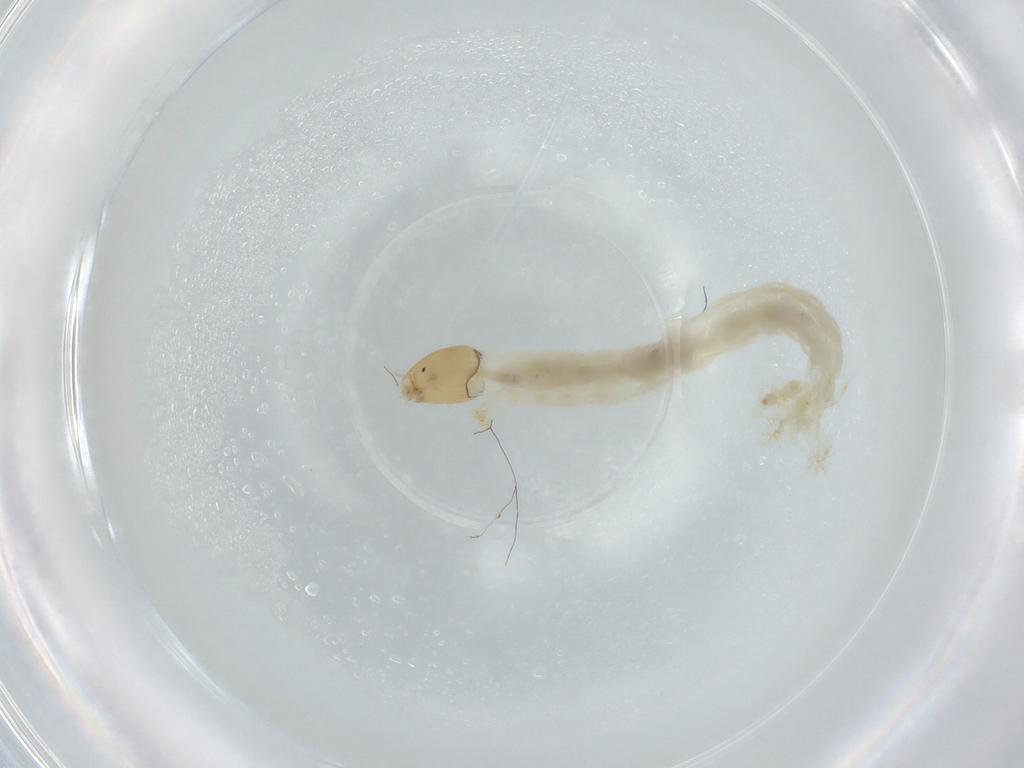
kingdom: Animalia
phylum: Arthropoda
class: Insecta
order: Diptera
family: Chironomidae
